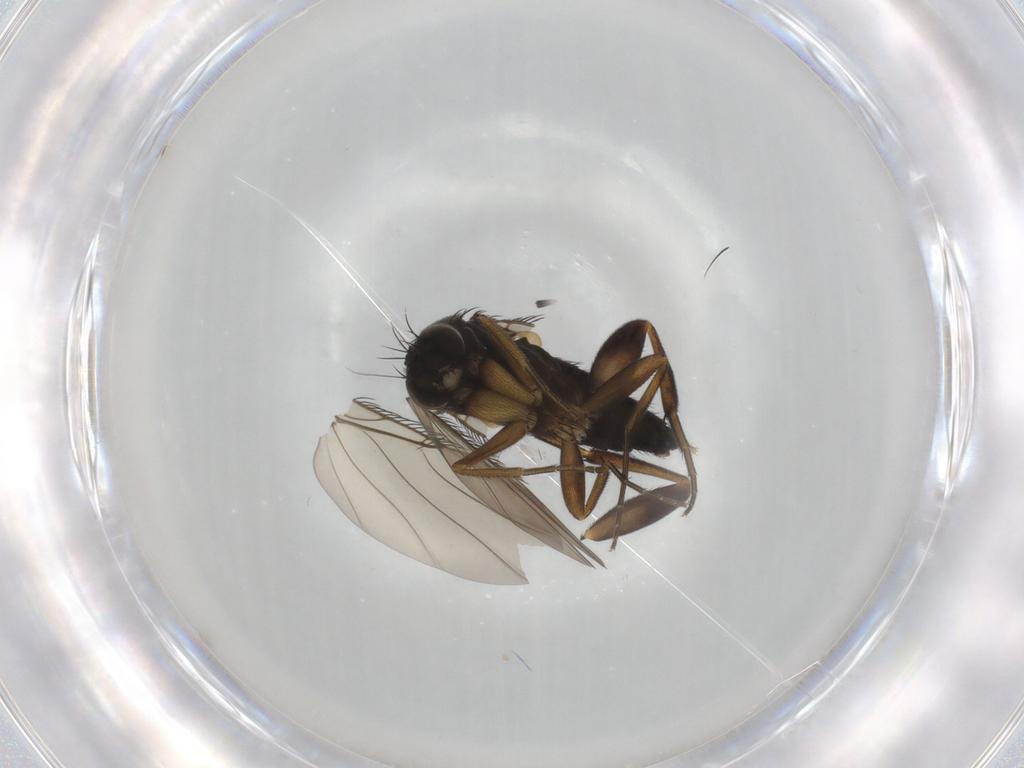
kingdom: Animalia
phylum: Arthropoda
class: Insecta
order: Diptera
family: Phoridae
